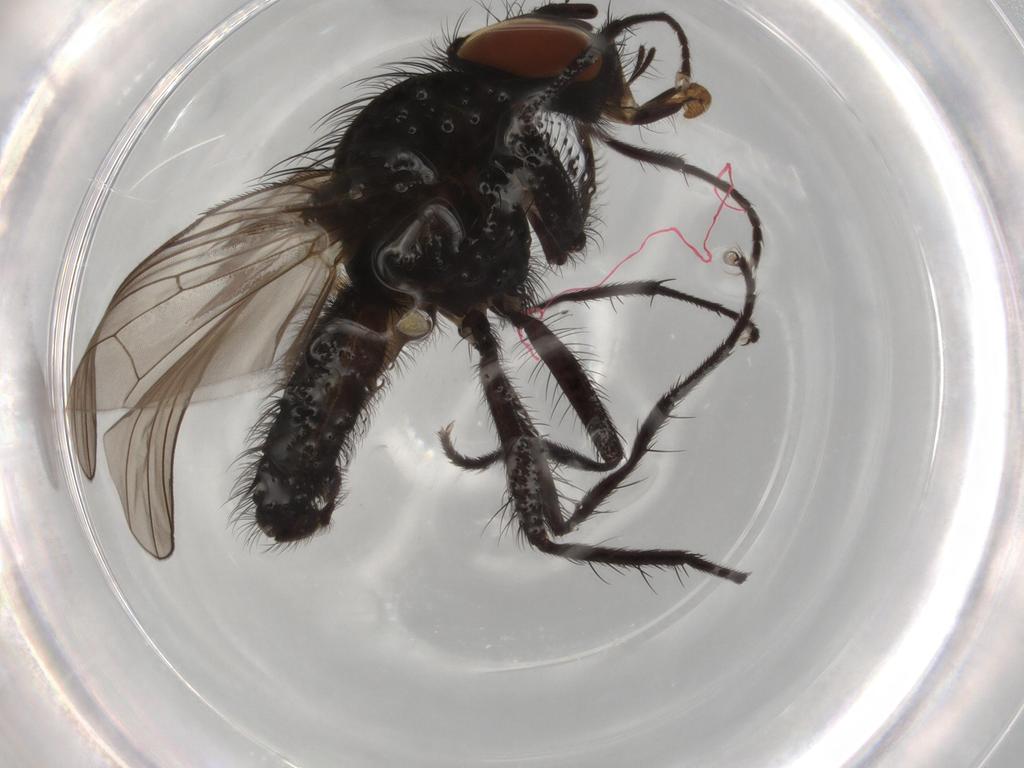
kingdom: Animalia
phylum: Arthropoda
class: Insecta
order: Diptera
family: Anthomyiidae
